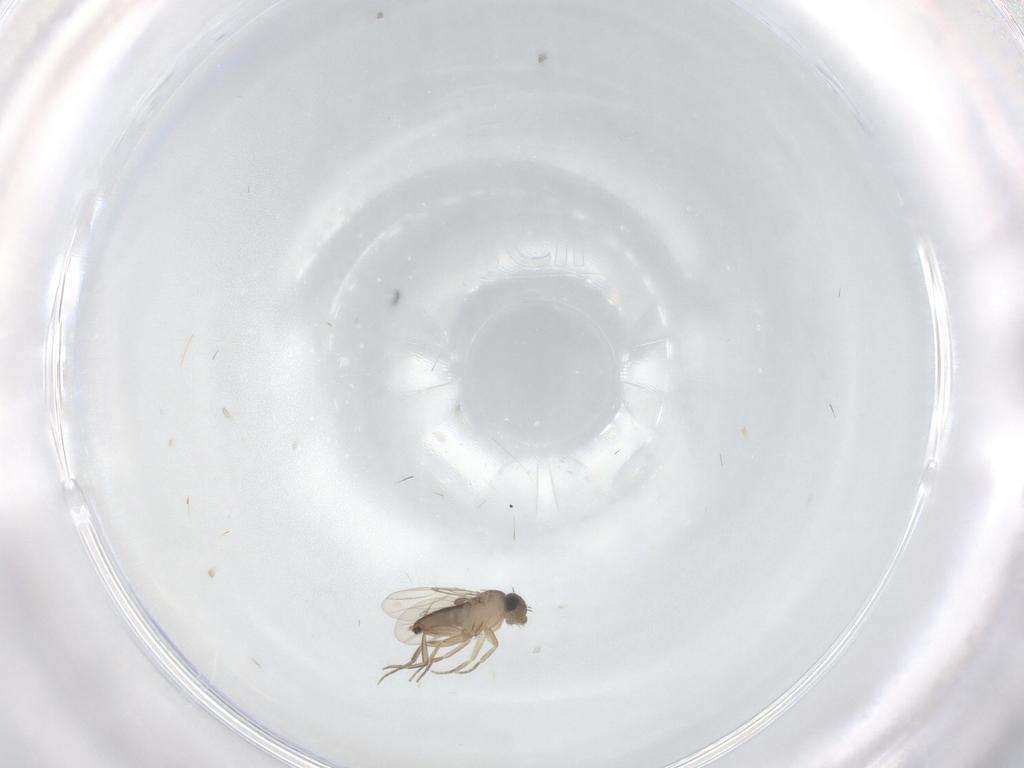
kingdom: Animalia
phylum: Arthropoda
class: Insecta
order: Diptera
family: Phoridae
